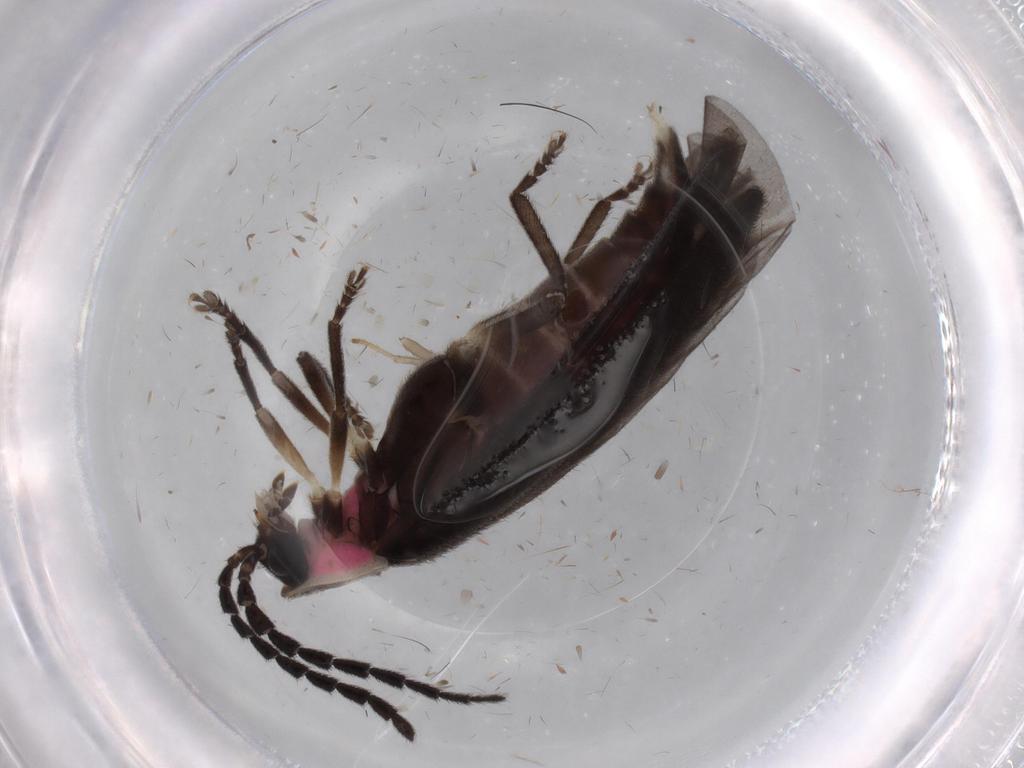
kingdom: Animalia
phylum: Arthropoda
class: Insecta
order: Coleoptera
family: Lampyridae
